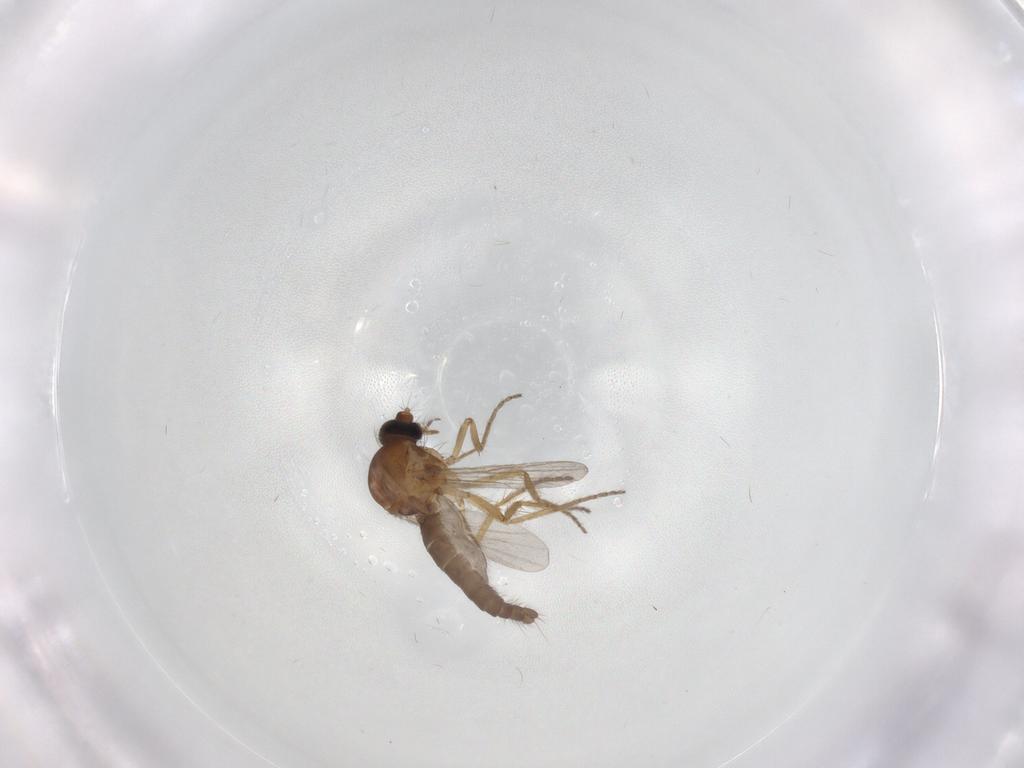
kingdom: Animalia
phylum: Arthropoda
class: Insecta
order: Diptera
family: Ceratopogonidae
